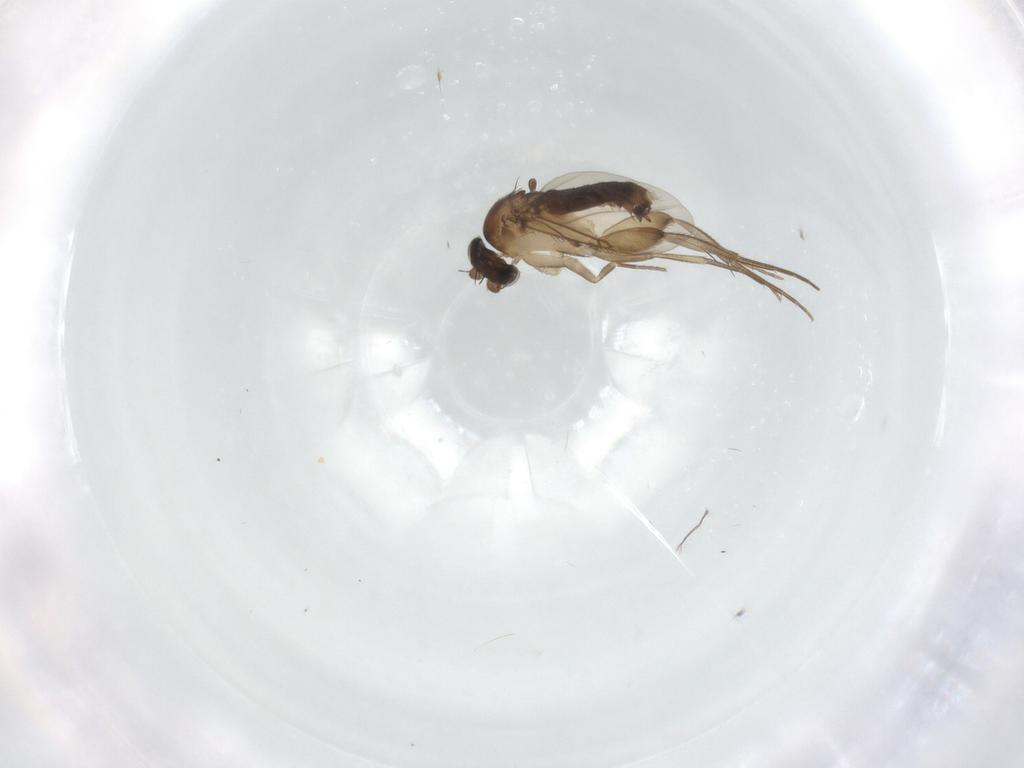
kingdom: Animalia
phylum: Arthropoda
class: Insecta
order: Diptera
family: Phoridae
